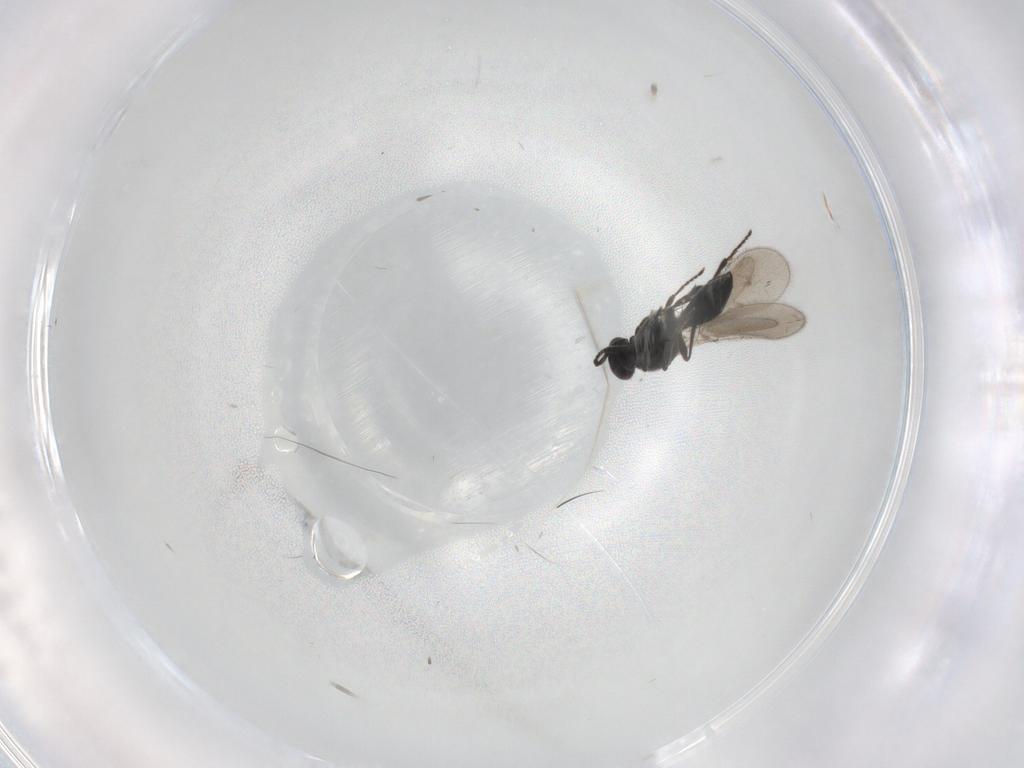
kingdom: Animalia
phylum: Arthropoda
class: Insecta
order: Hymenoptera
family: Platygastridae
